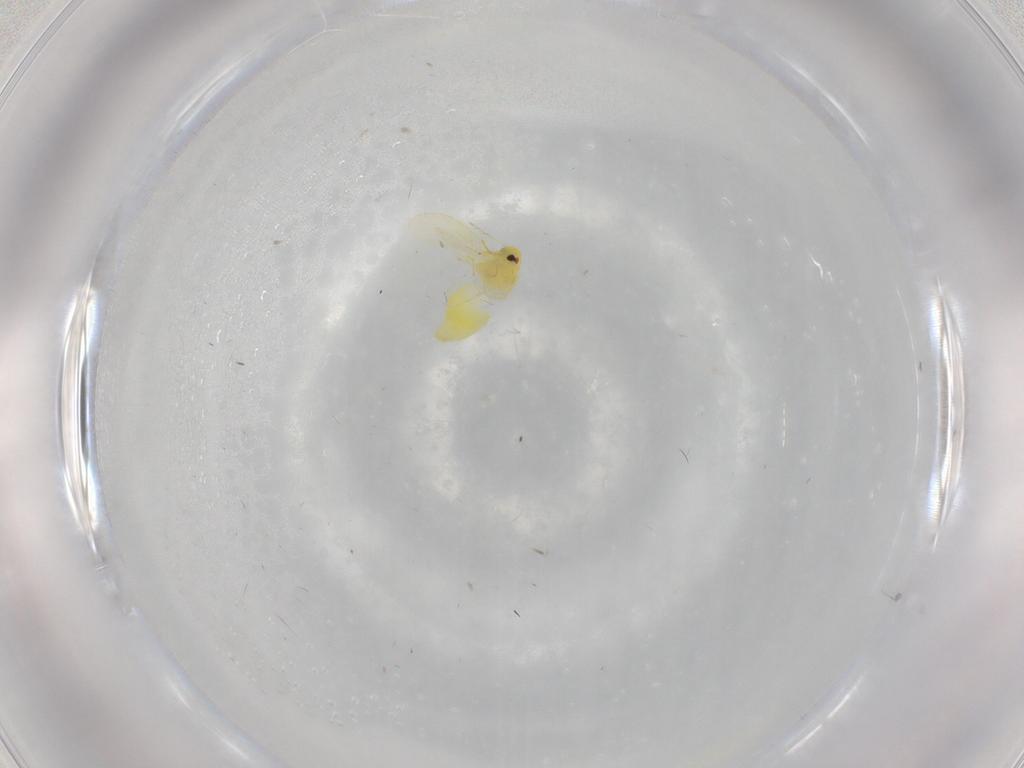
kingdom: Animalia
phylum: Arthropoda
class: Insecta
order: Hemiptera
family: Aleyrodidae
